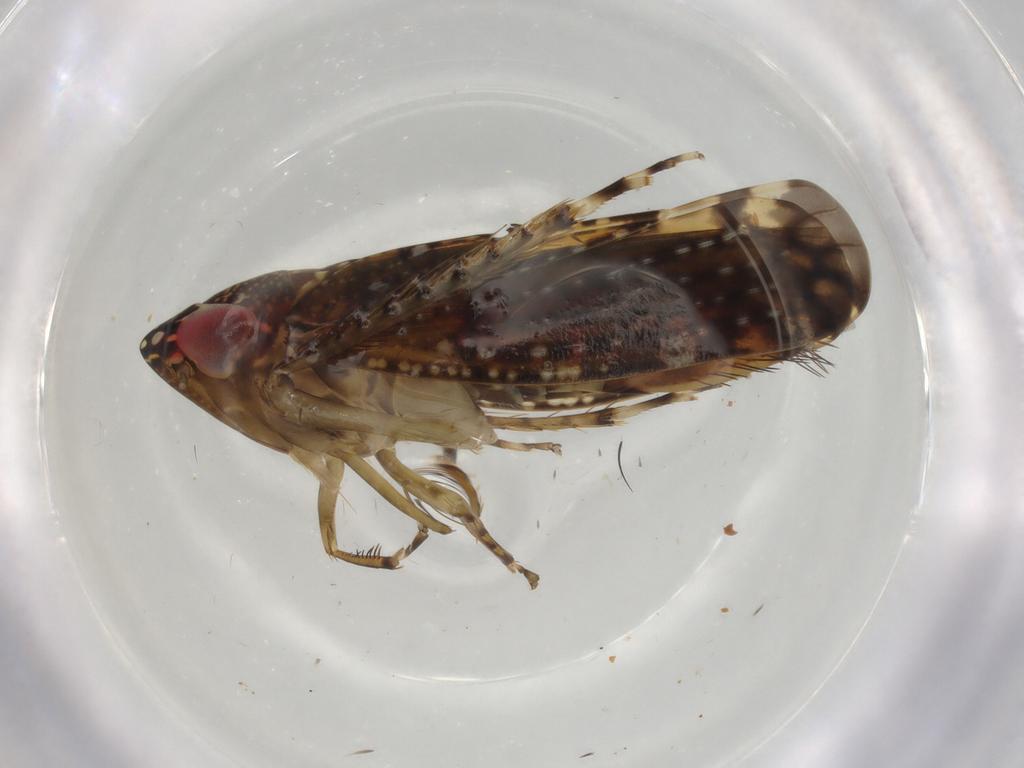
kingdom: Animalia
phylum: Arthropoda
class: Insecta
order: Hemiptera
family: Cicadellidae
